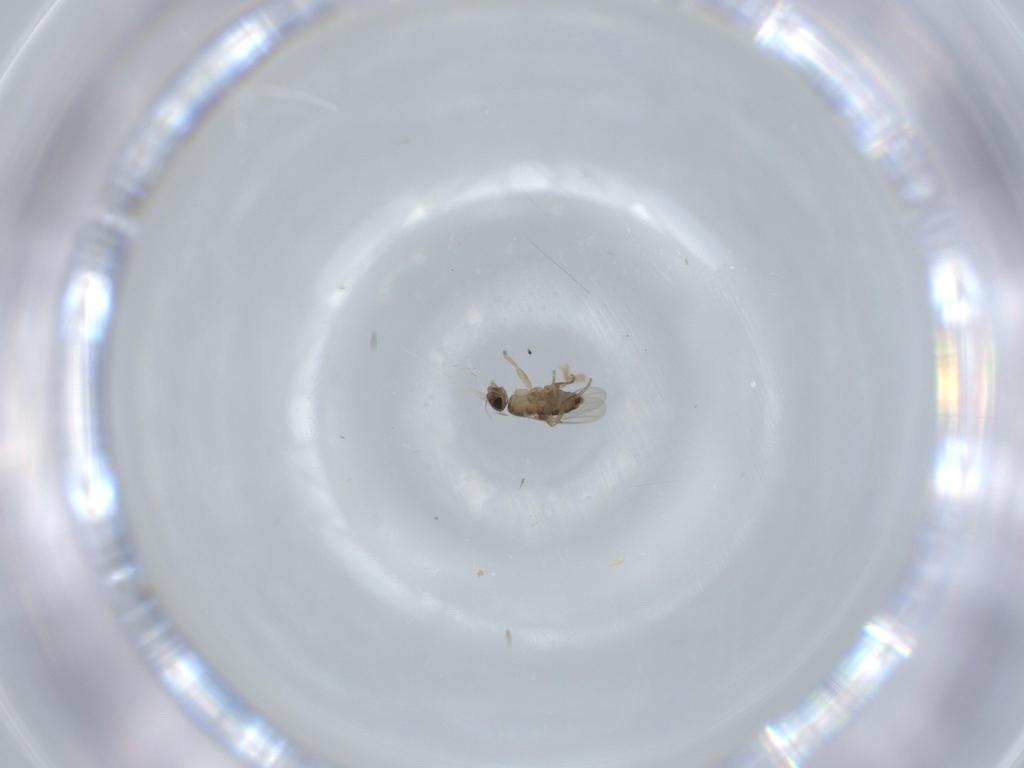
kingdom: Animalia
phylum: Arthropoda
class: Insecta
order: Diptera
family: Phoridae
